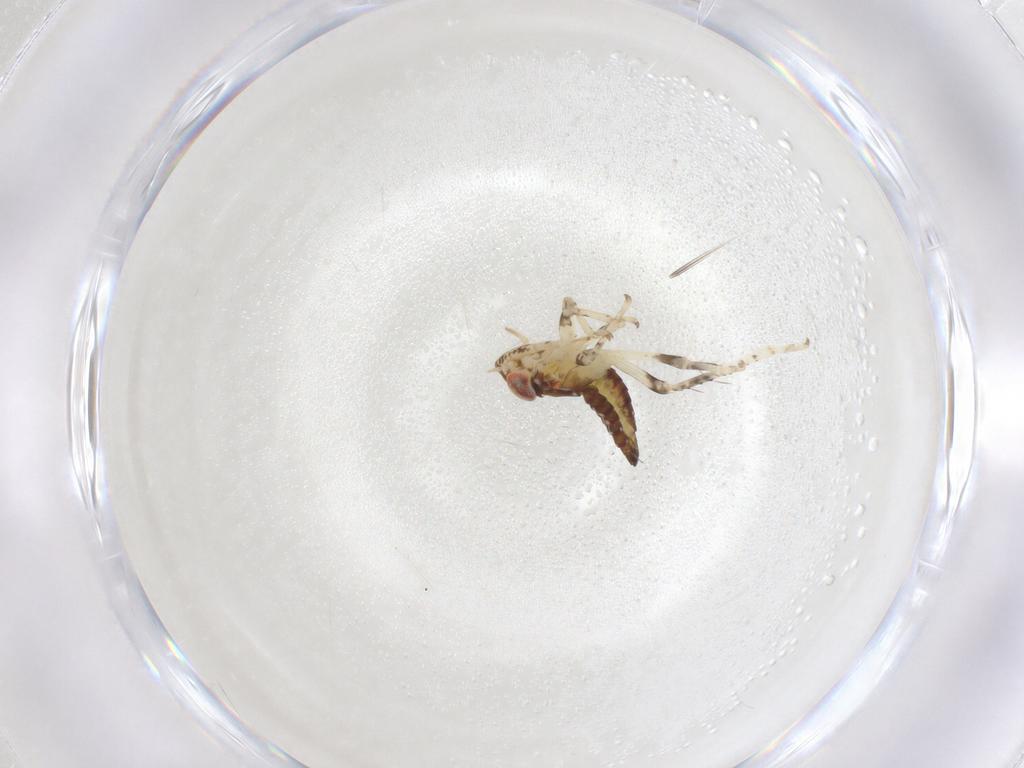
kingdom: Animalia
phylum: Arthropoda
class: Insecta
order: Hemiptera
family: Cicadellidae
